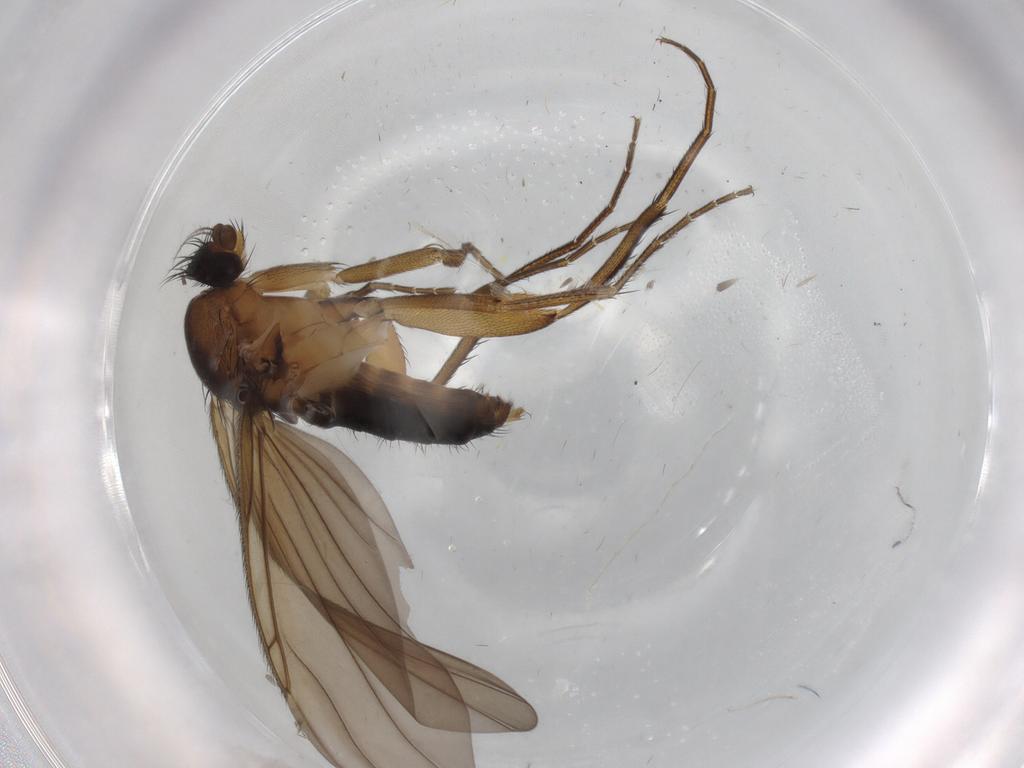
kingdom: Animalia
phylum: Arthropoda
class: Insecta
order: Diptera
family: Phoridae
